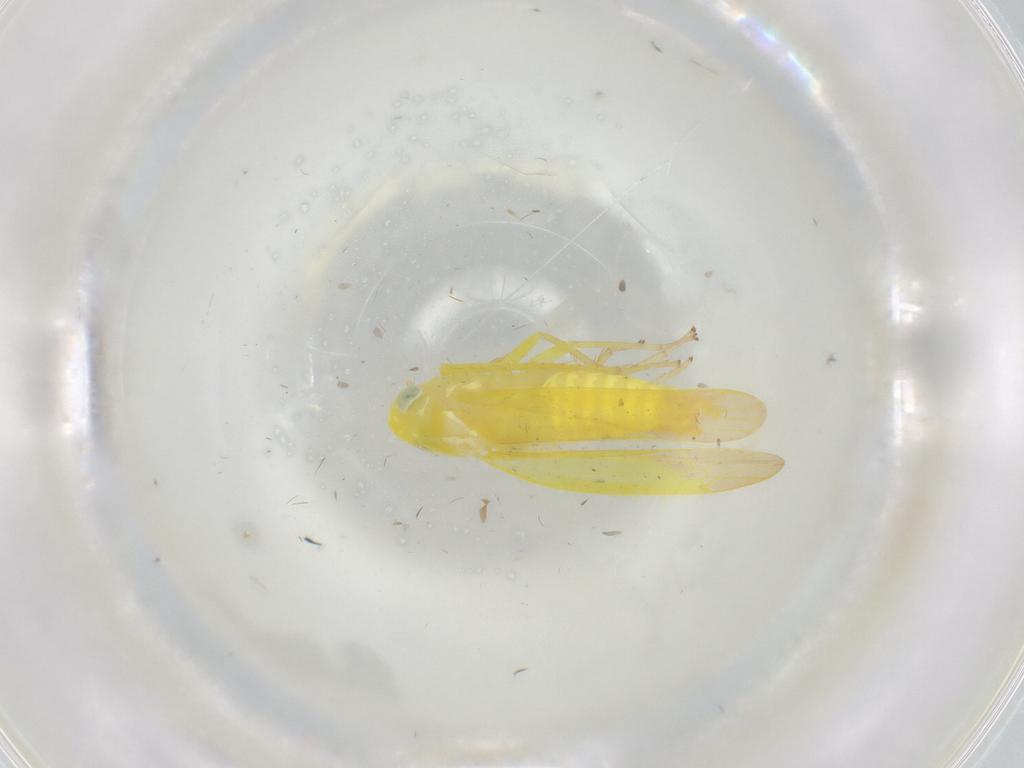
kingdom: Animalia
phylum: Arthropoda
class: Insecta
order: Hemiptera
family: Cicadellidae
